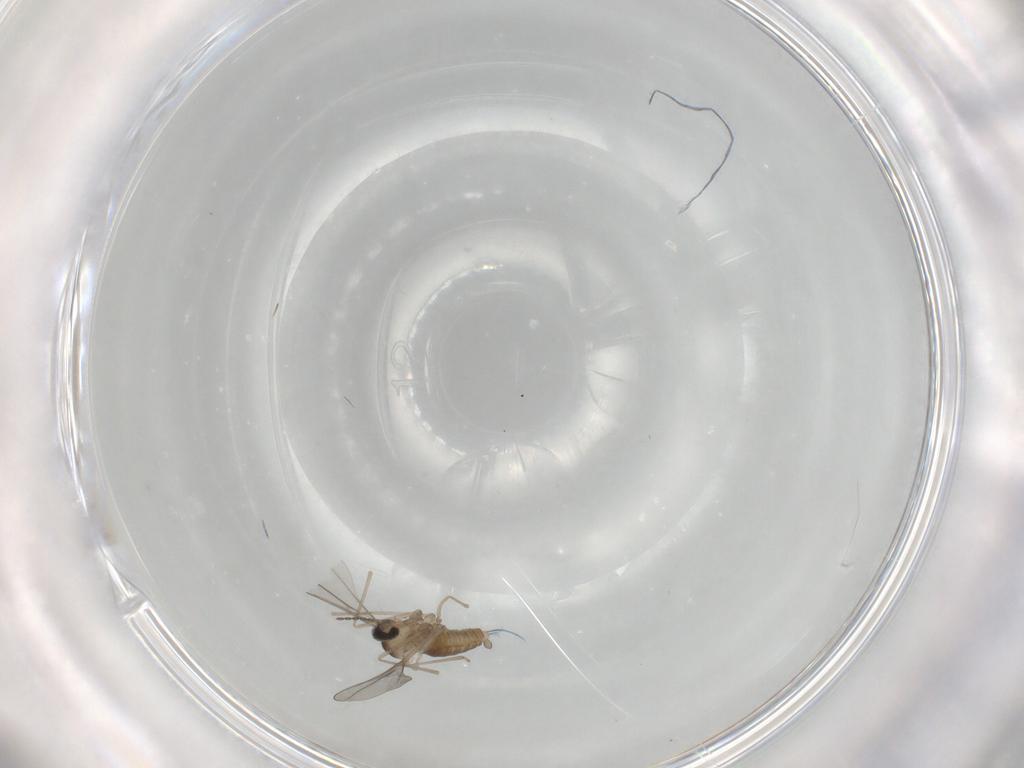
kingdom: Animalia
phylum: Arthropoda
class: Insecta
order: Diptera
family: Cecidomyiidae
